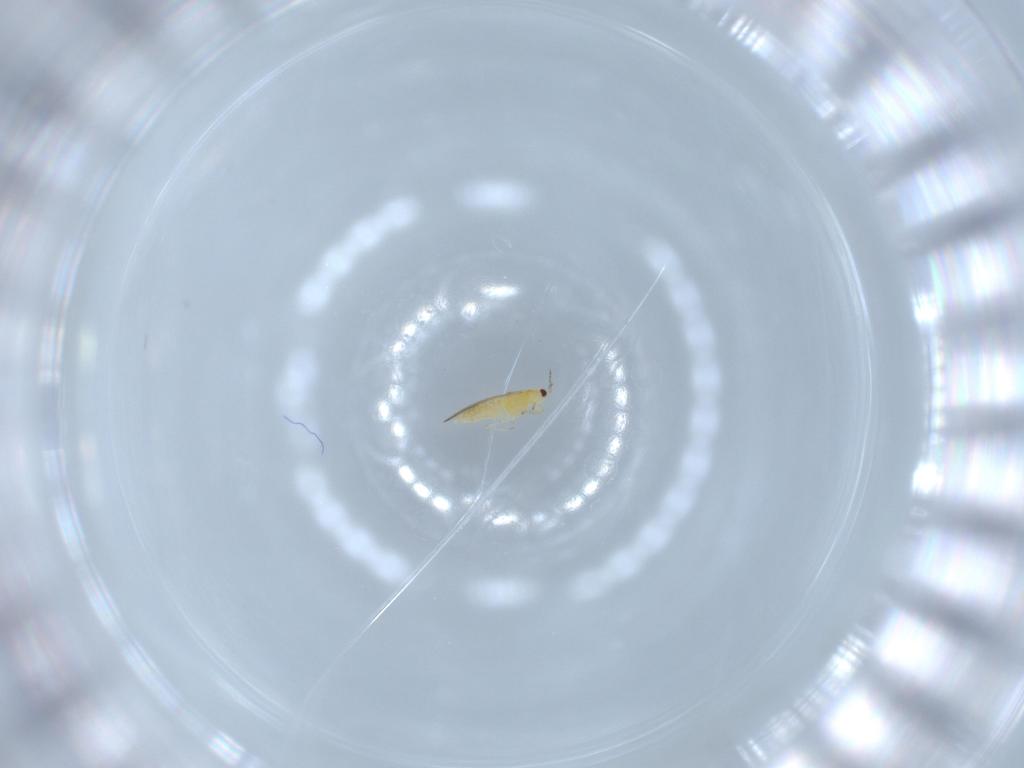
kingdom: Animalia
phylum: Arthropoda
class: Insecta
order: Thysanoptera
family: Thripidae
